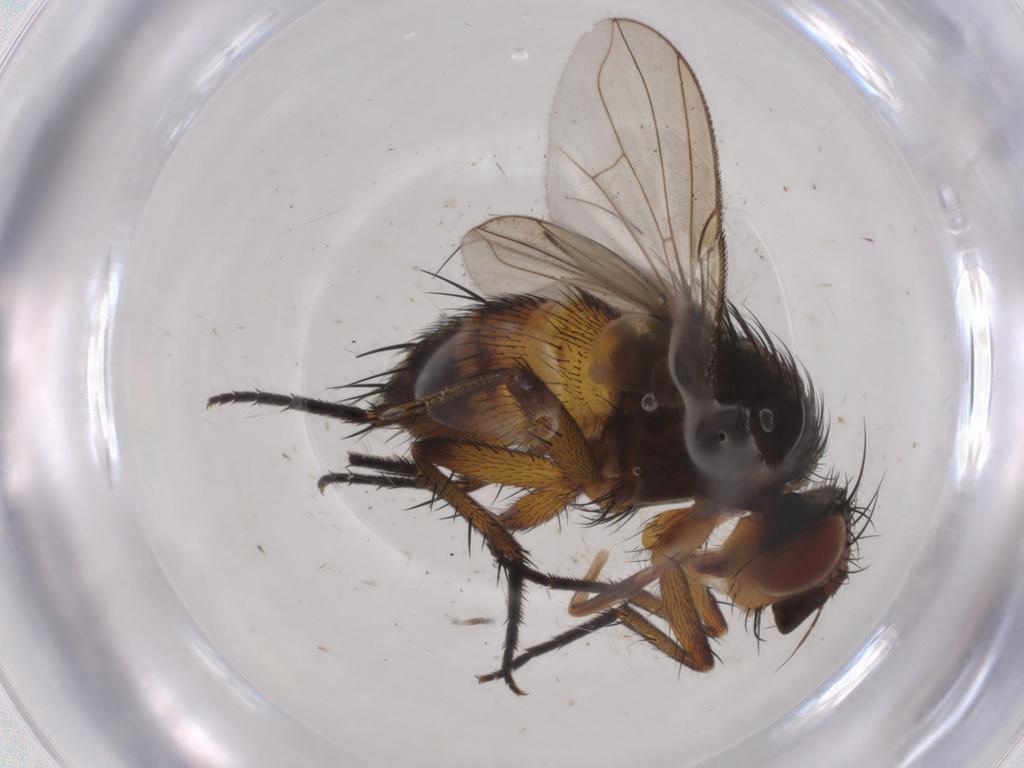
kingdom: Animalia
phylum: Arthropoda
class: Insecta
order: Diptera
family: Tachinidae
